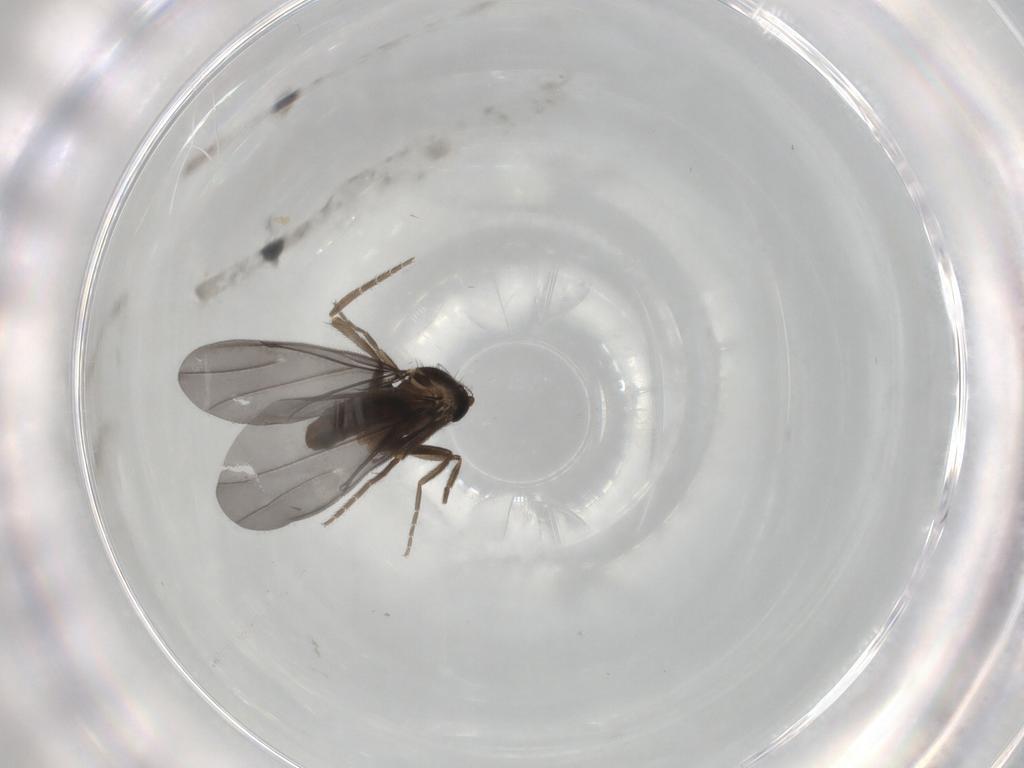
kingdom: Animalia
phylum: Arthropoda
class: Insecta
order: Diptera
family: Phoridae
